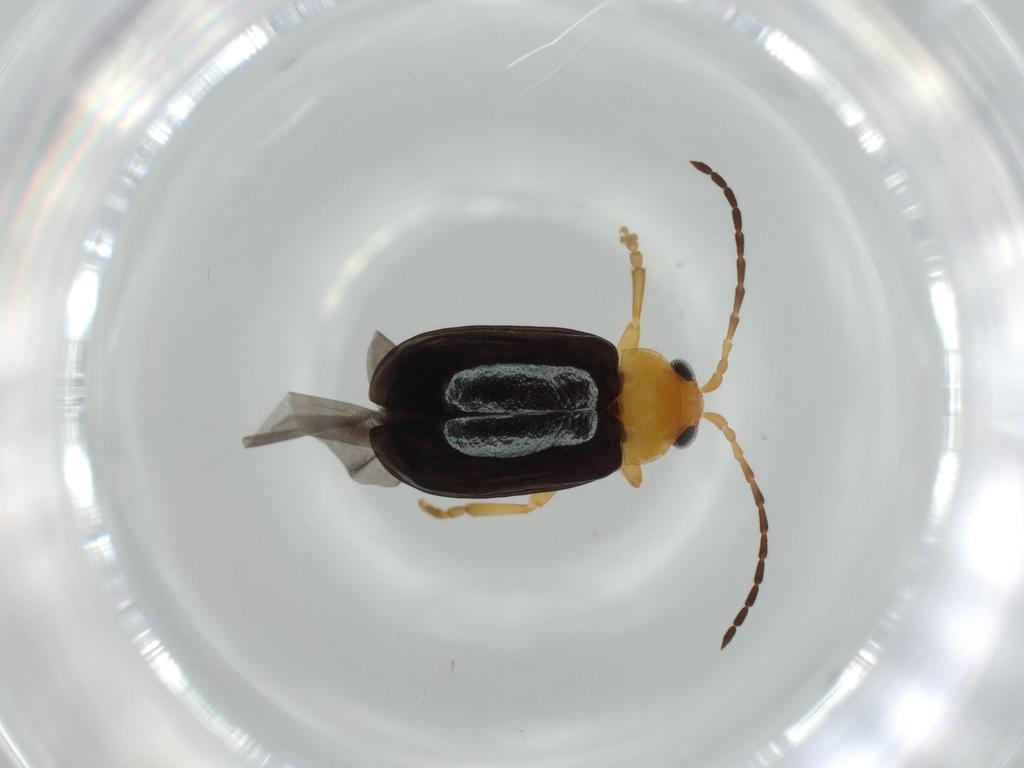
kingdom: Animalia
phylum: Arthropoda
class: Insecta
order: Coleoptera
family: Chrysomelidae
